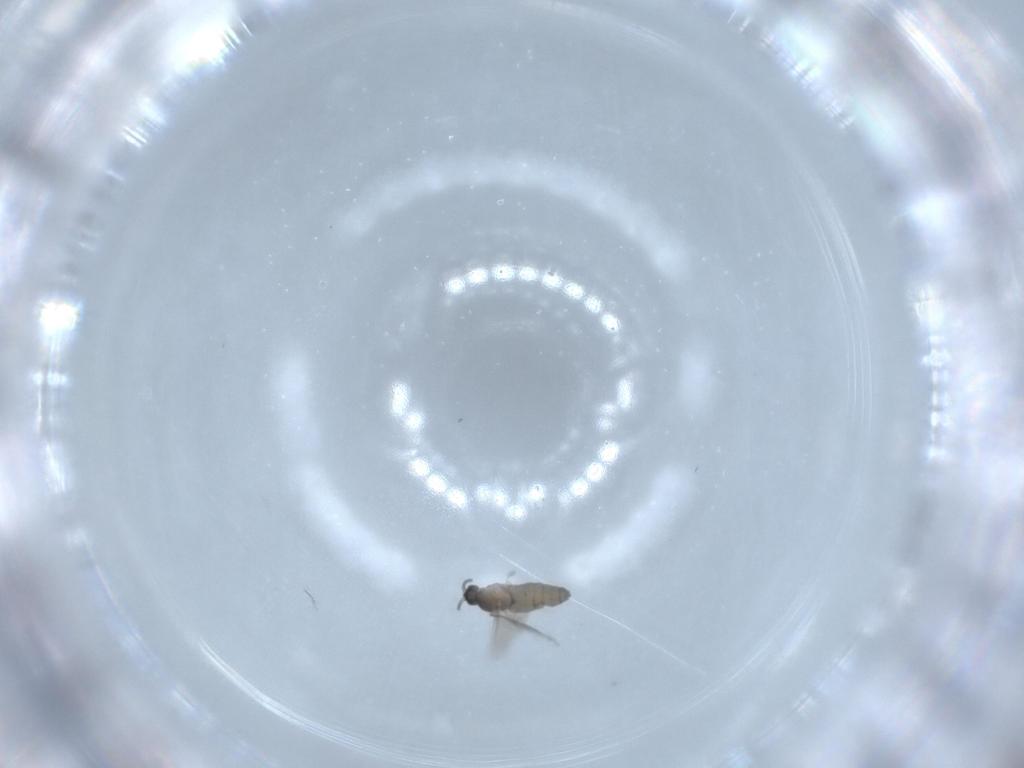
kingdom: Animalia
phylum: Arthropoda
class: Insecta
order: Diptera
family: Cecidomyiidae
